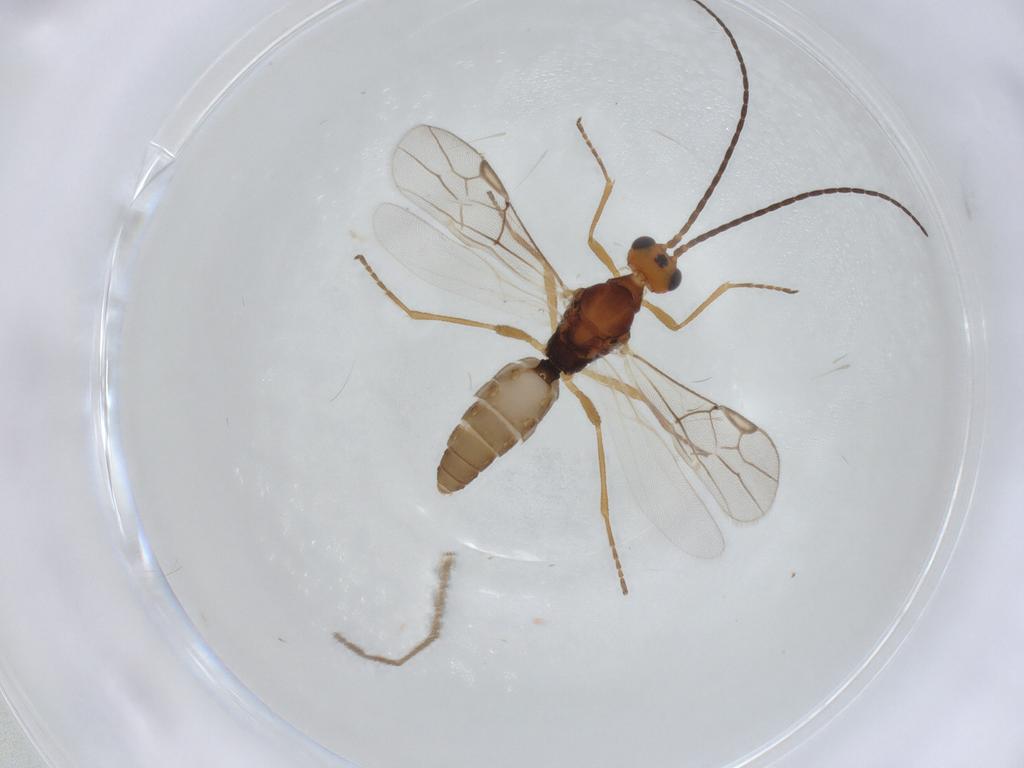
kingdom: Animalia
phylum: Arthropoda
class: Insecta
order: Hymenoptera
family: Braconidae
